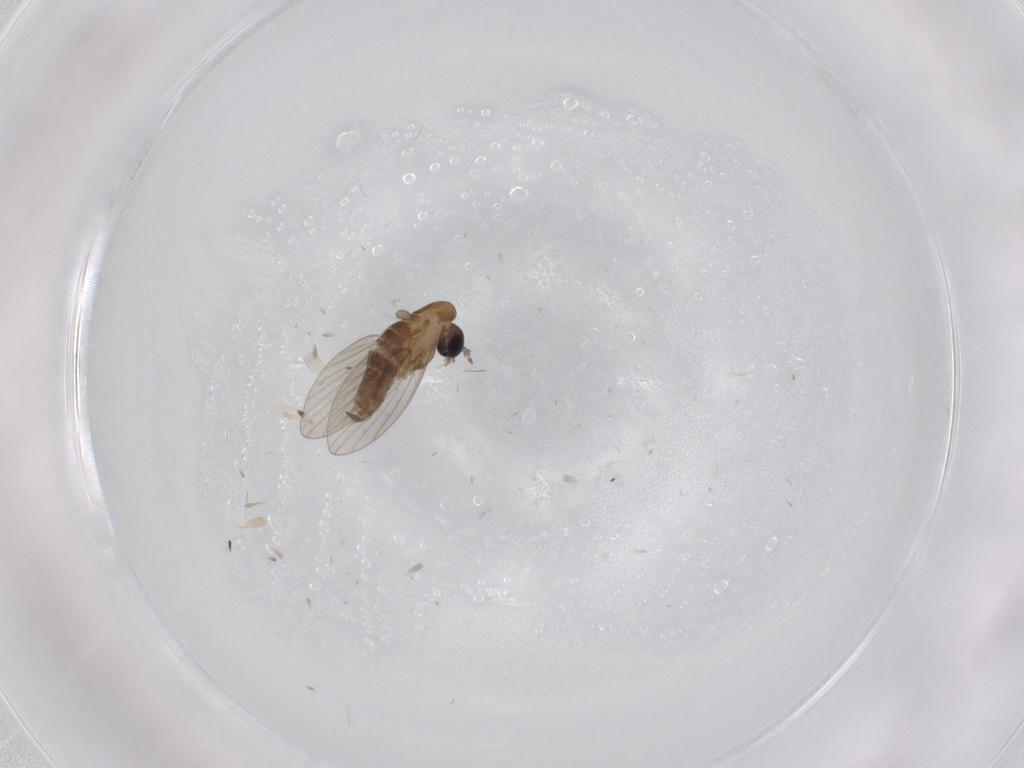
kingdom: Animalia
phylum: Arthropoda
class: Insecta
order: Diptera
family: Psychodidae
